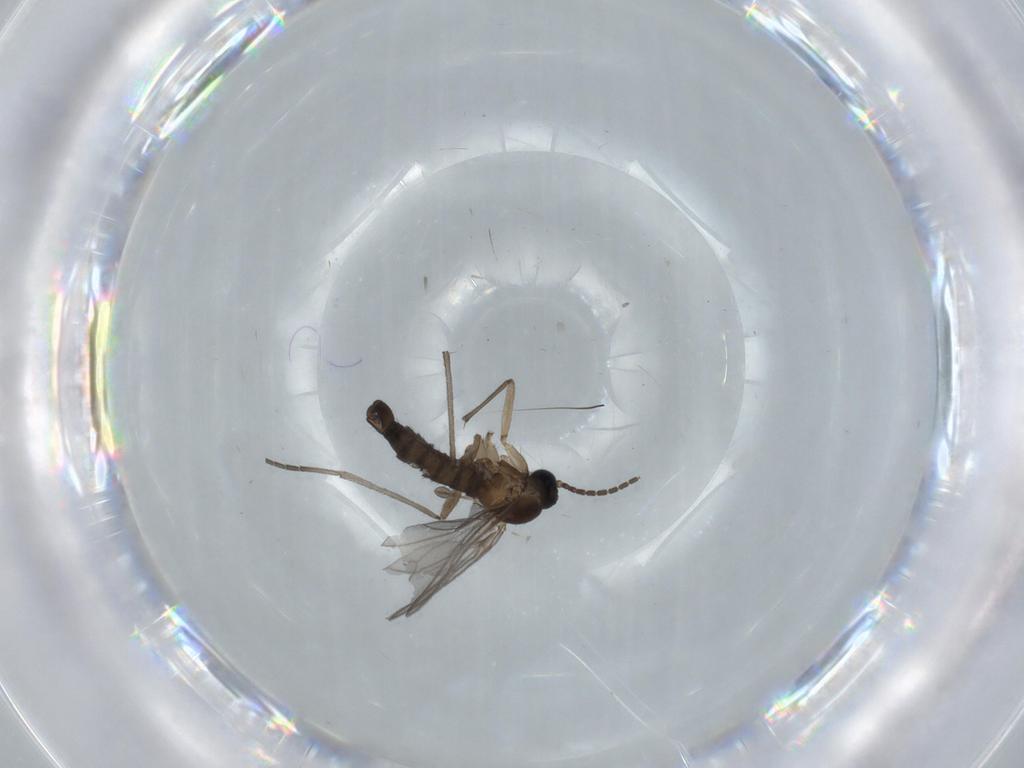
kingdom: Animalia
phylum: Arthropoda
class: Insecta
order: Diptera
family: Sciaridae
